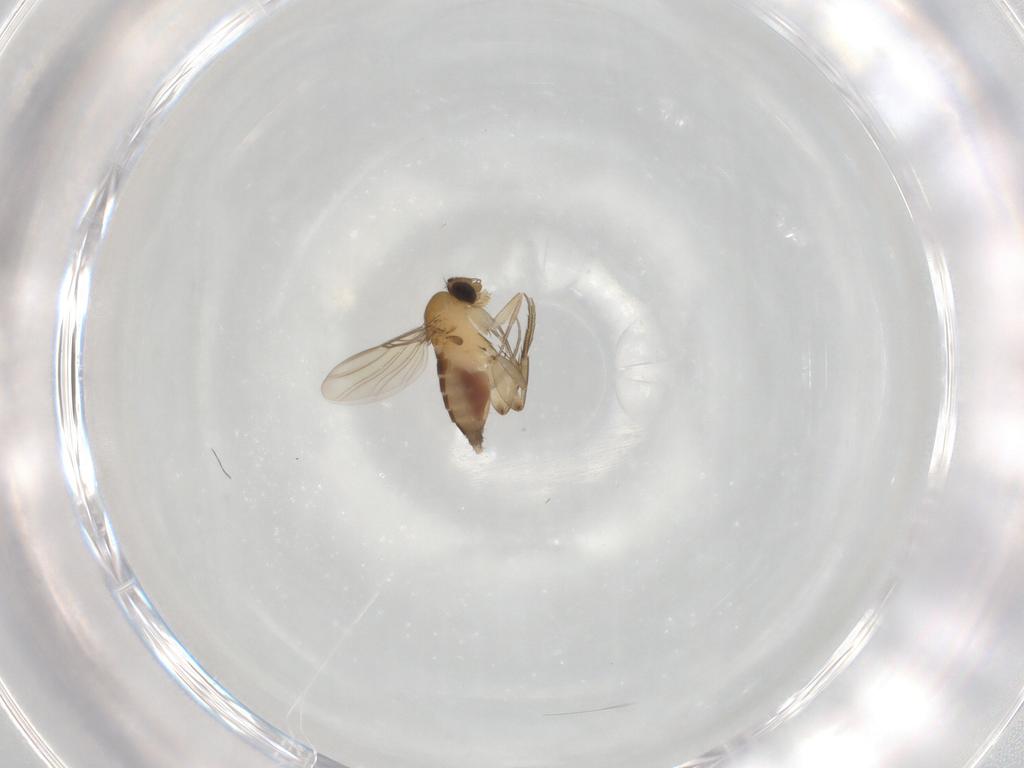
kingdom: Animalia
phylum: Arthropoda
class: Insecta
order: Diptera
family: Phoridae
